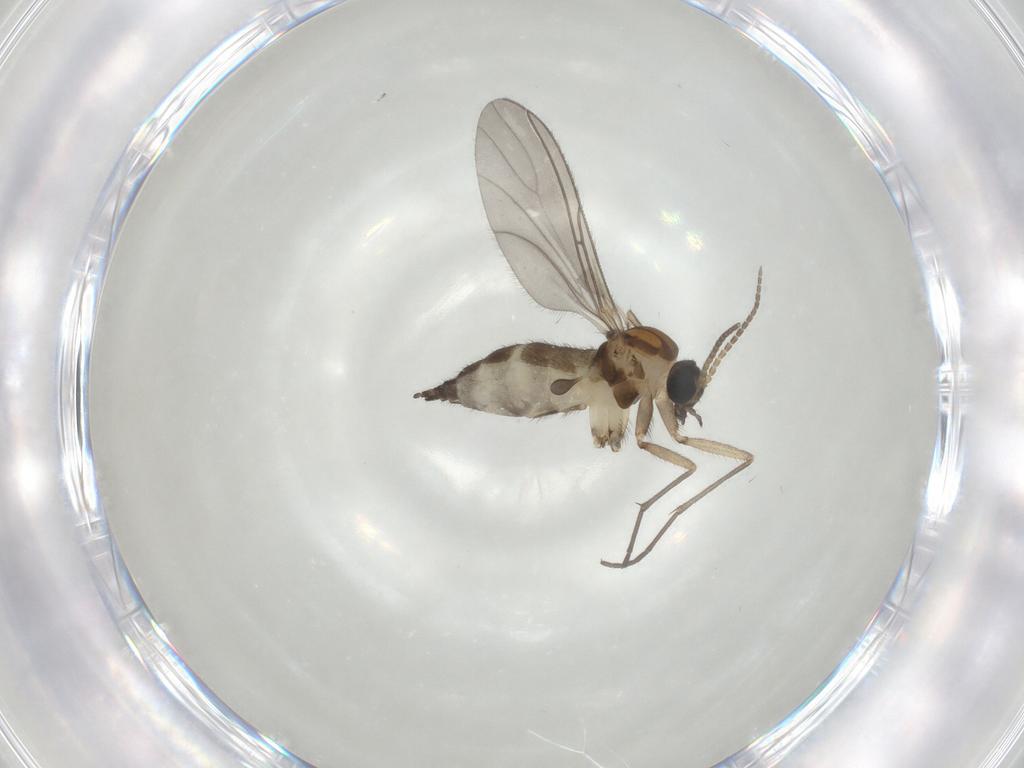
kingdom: Animalia
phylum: Arthropoda
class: Insecta
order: Diptera
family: Sciaridae
